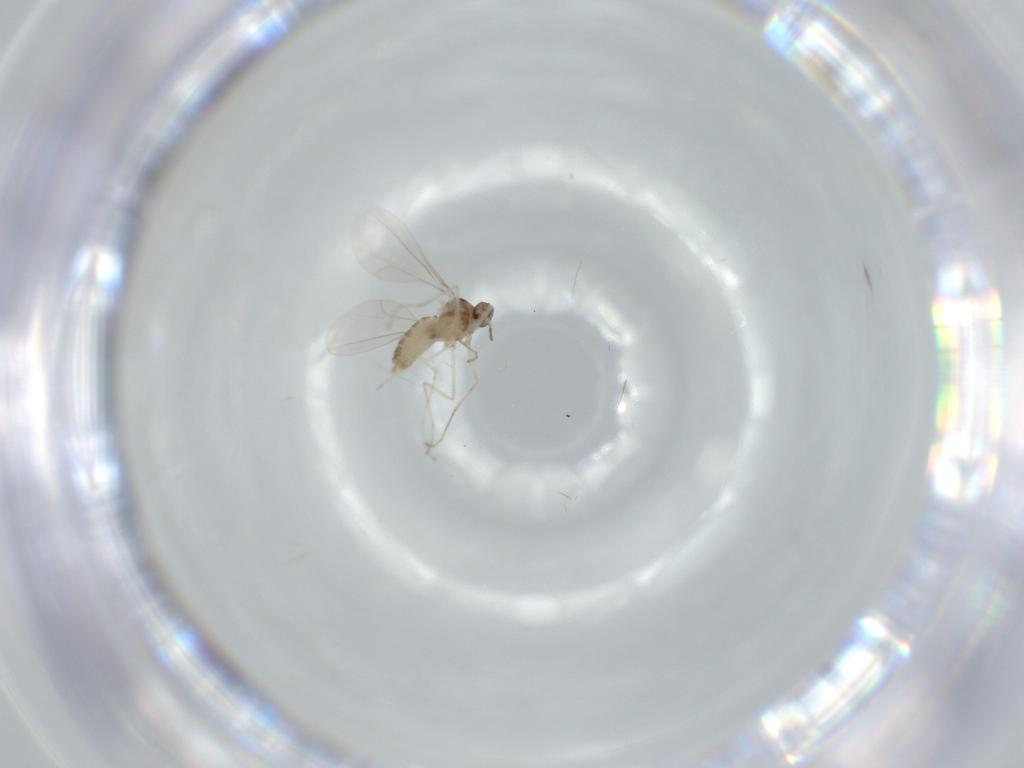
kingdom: Animalia
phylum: Arthropoda
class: Insecta
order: Diptera
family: Cecidomyiidae
